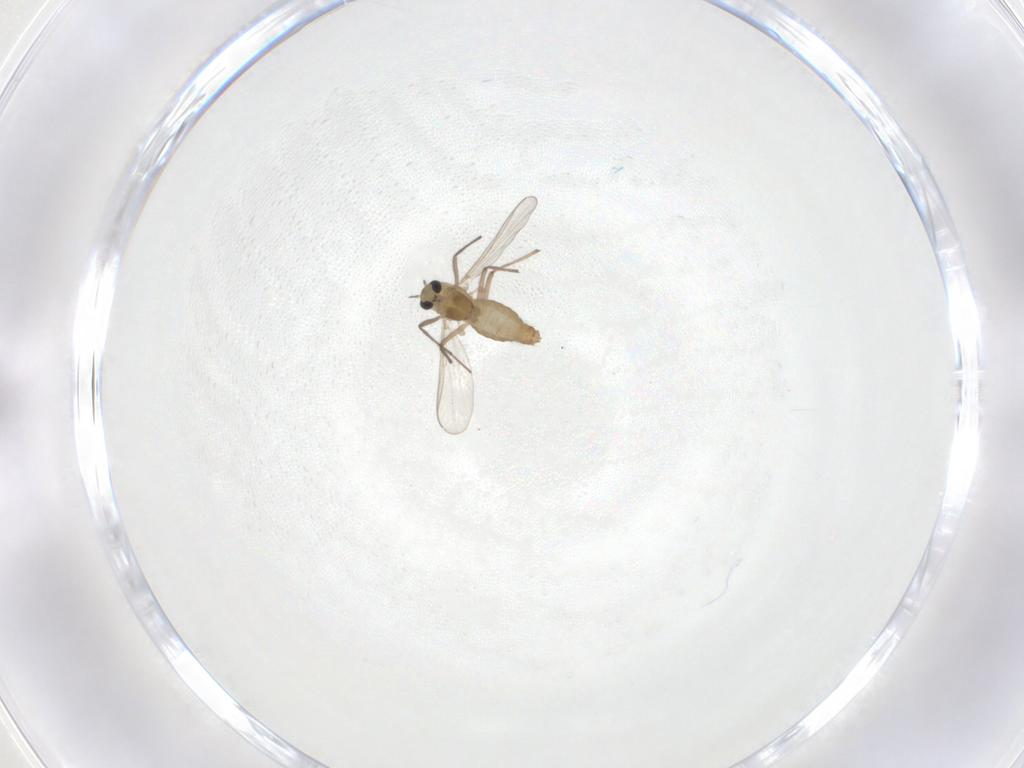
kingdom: Animalia
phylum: Arthropoda
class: Insecta
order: Diptera
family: Chironomidae
